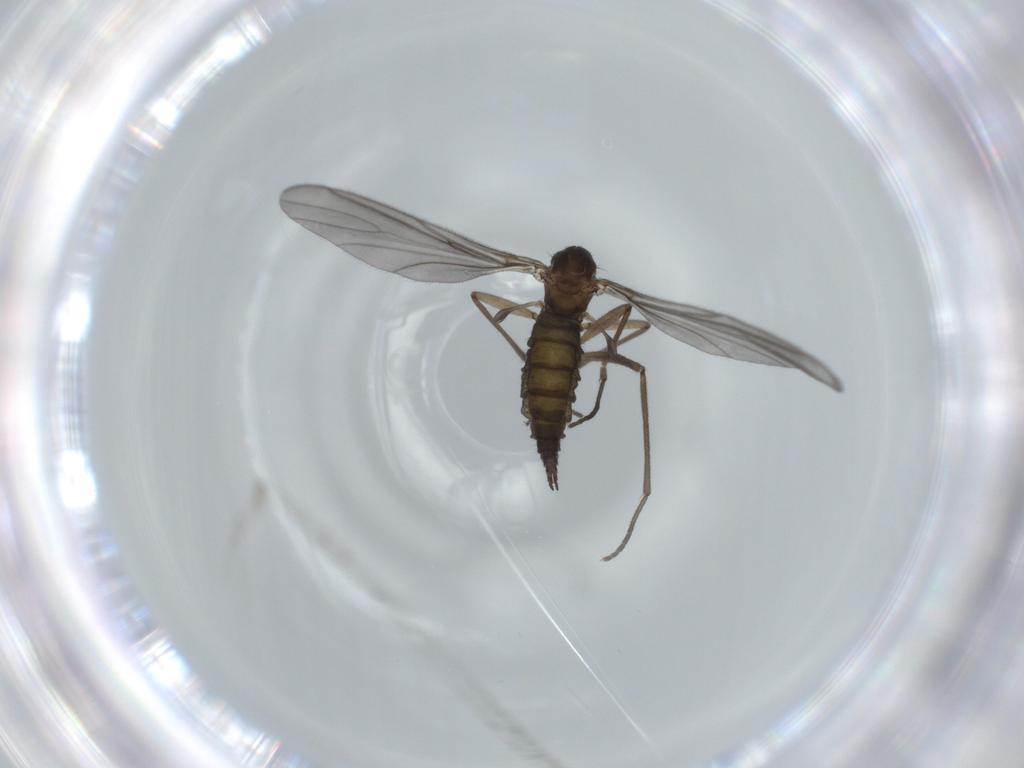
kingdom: Animalia
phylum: Arthropoda
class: Insecta
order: Diptera
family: Sciaridae
